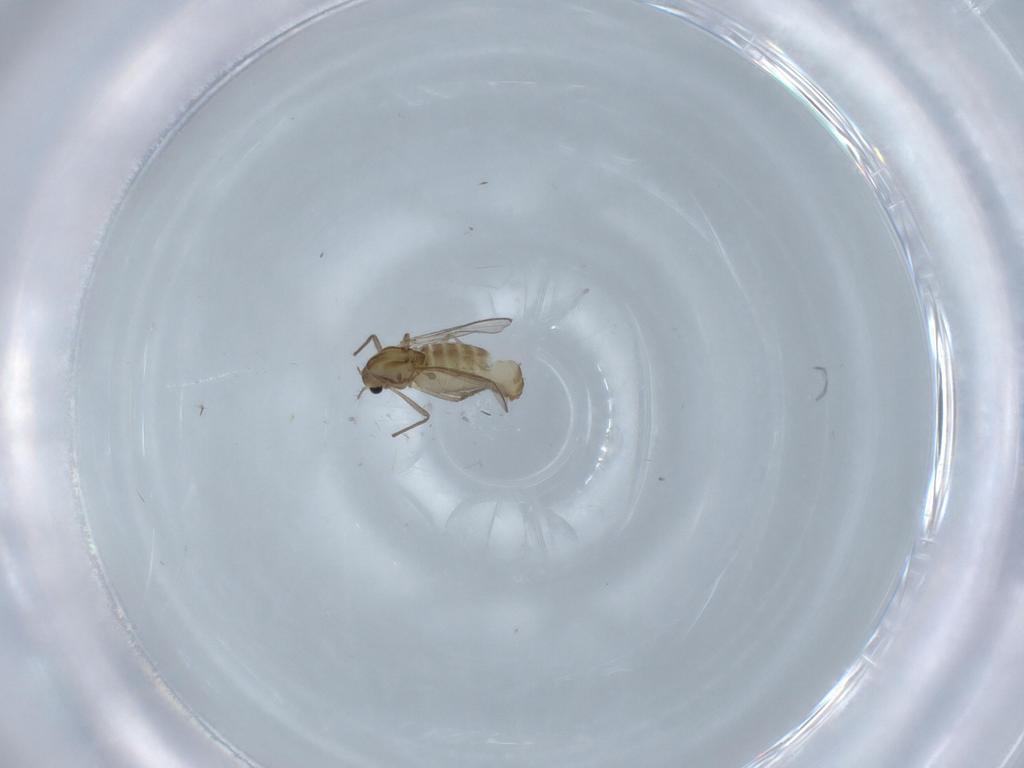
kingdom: Animalia
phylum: Arthropoda
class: Insecta
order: Diptera
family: Chironomidae
